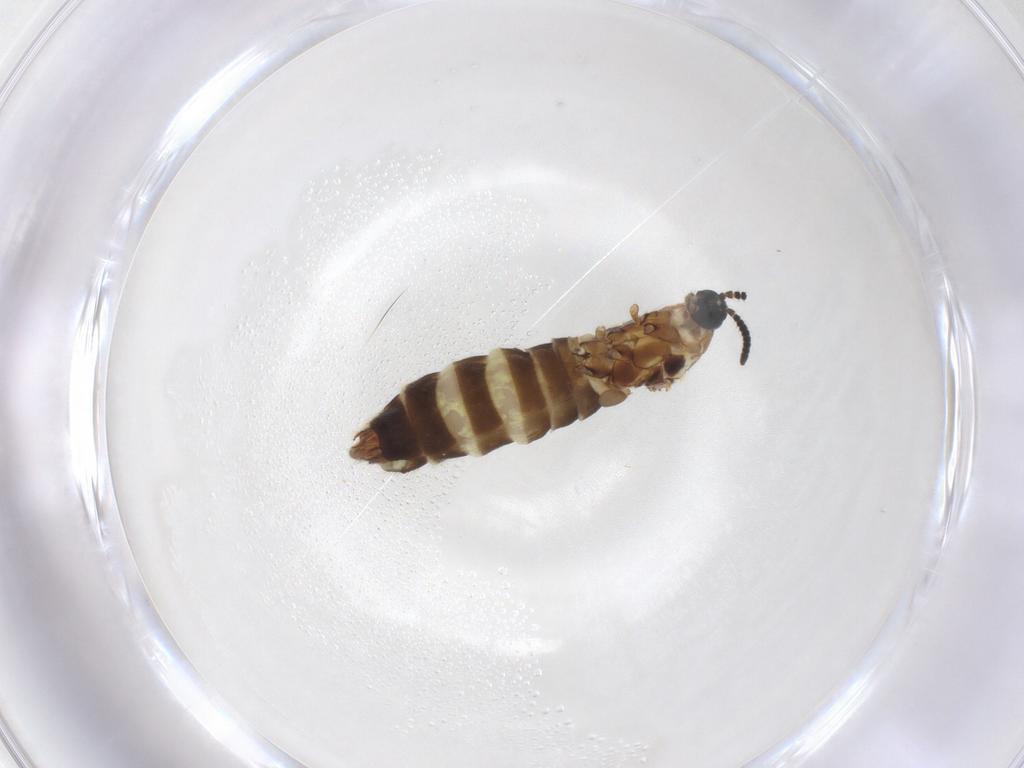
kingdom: Animalia
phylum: Arthropoda
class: Insecta
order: Diptera
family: Scatopsidae
